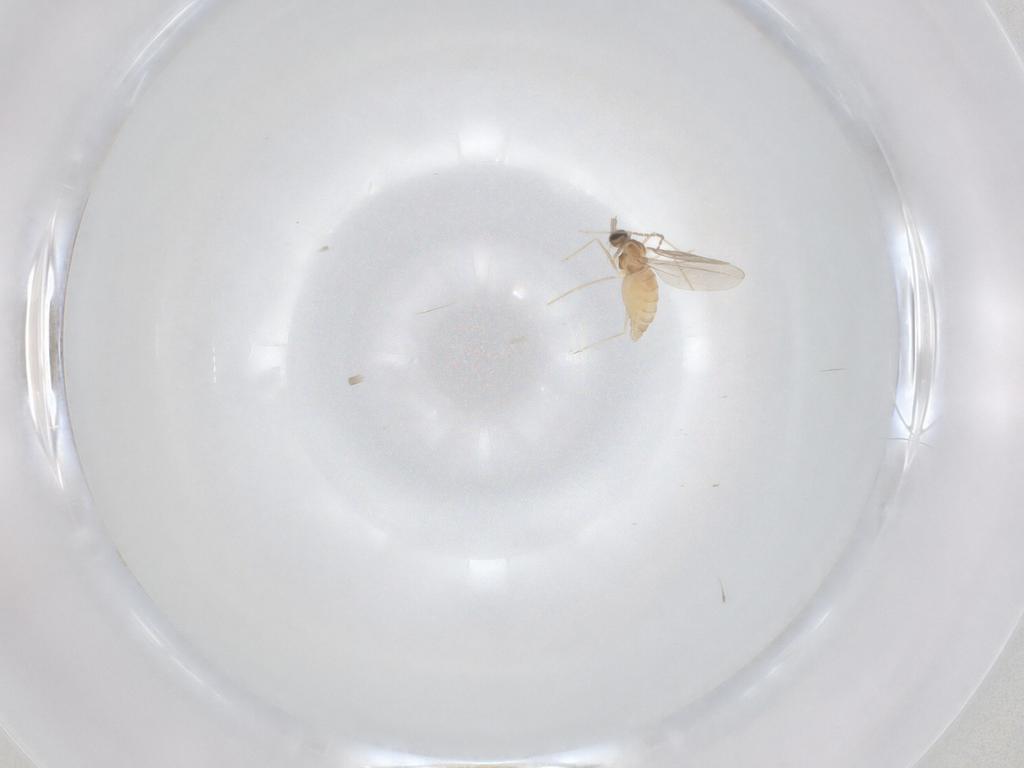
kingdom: Animalia
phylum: Arthropoda
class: Insecta
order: Diptera
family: Cecidomyiidae
